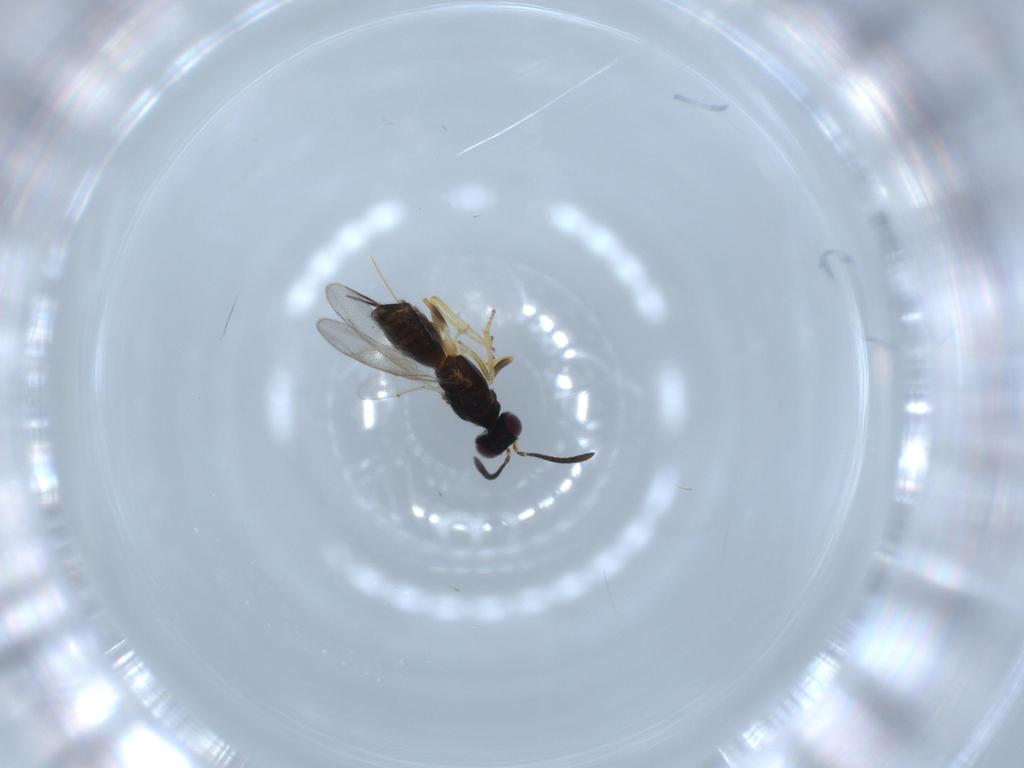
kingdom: Animalia
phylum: Arthropoda
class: Insecta
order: Hymenoptera
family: Eupelmidae
